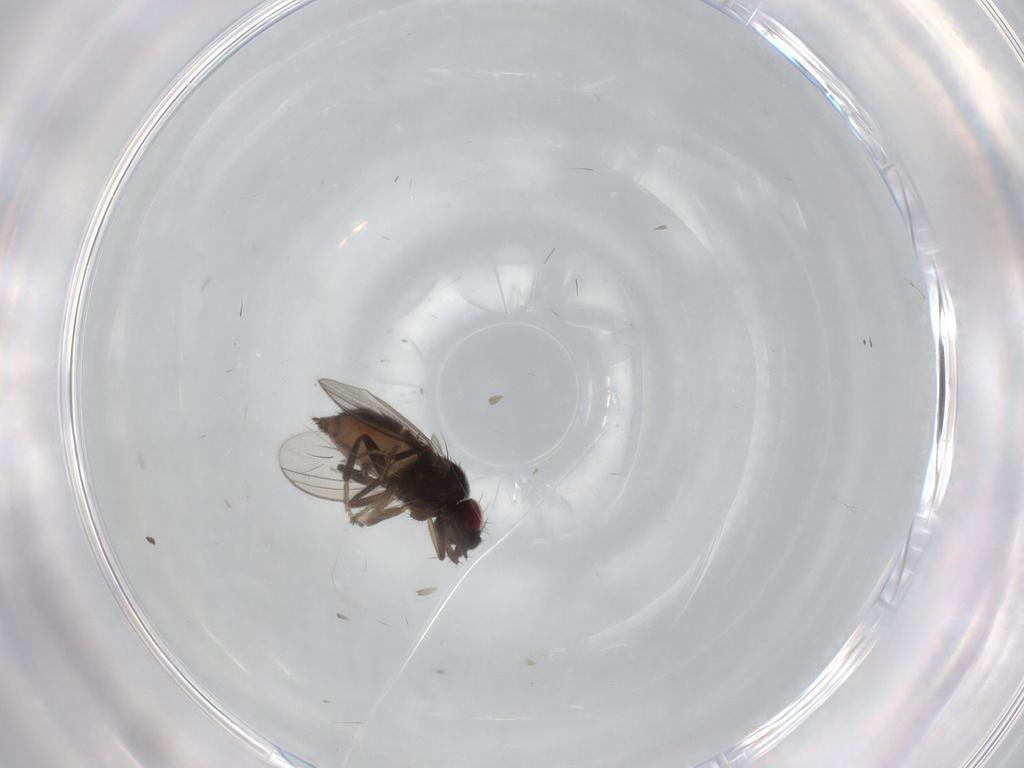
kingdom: Animalia
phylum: Arthropoda
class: Insecta
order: Diptera
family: Milichiidae
